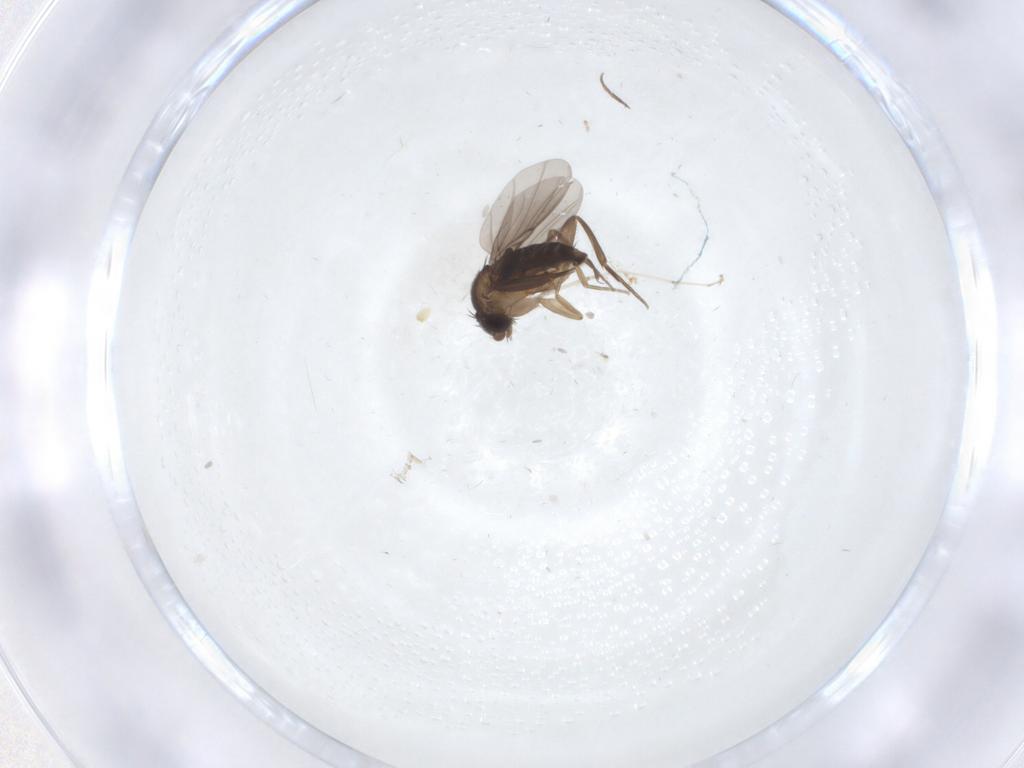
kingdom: Animalia
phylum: Arthropoda
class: Insecta
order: Diptera
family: Phoridae
